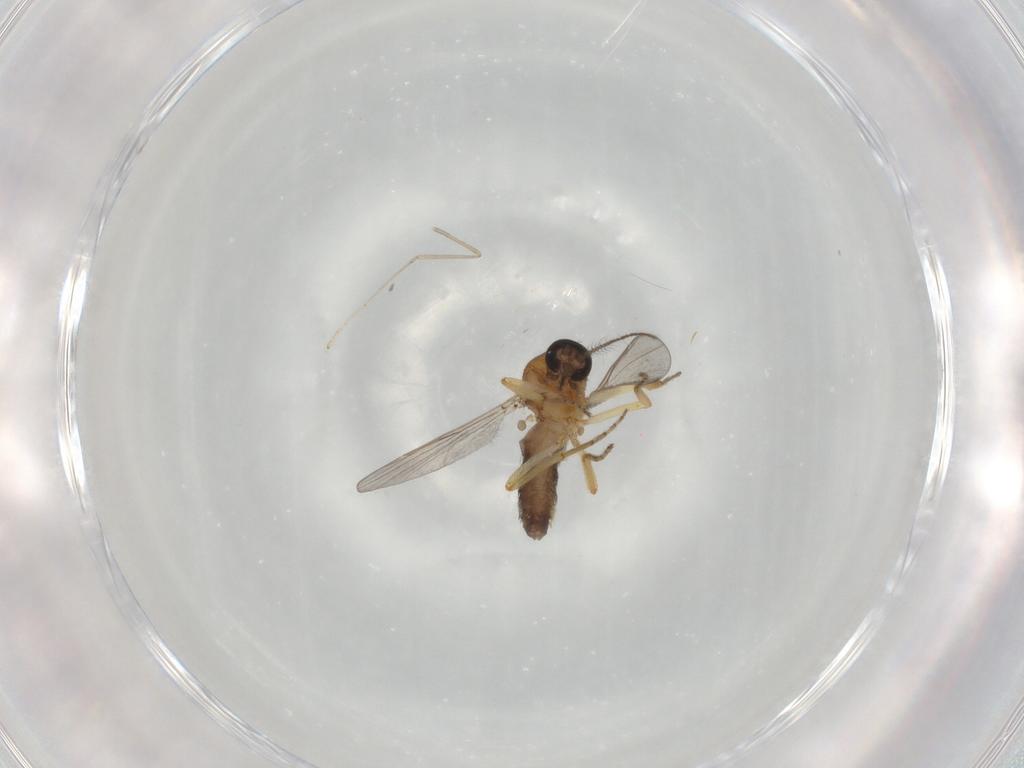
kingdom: Animalia
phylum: Arthropoda
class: Insecta
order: Diptera
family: Ceratopogonidae
